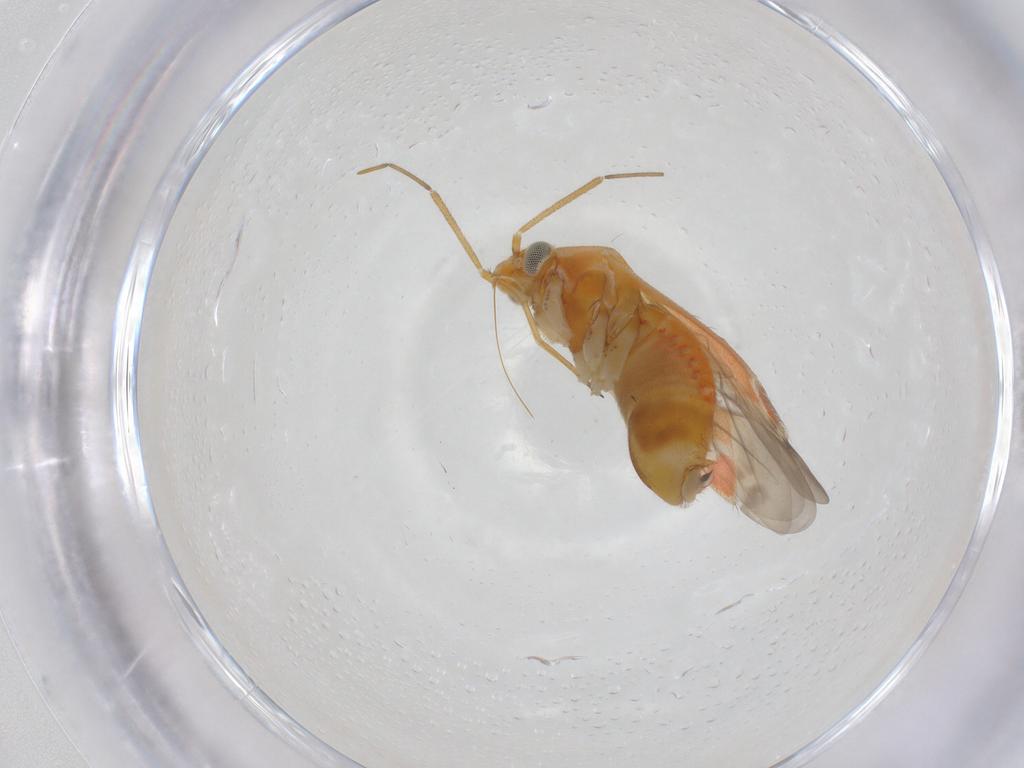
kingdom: Animalia
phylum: Arthropoda
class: Insecta
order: Hemiptera
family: Miridae
